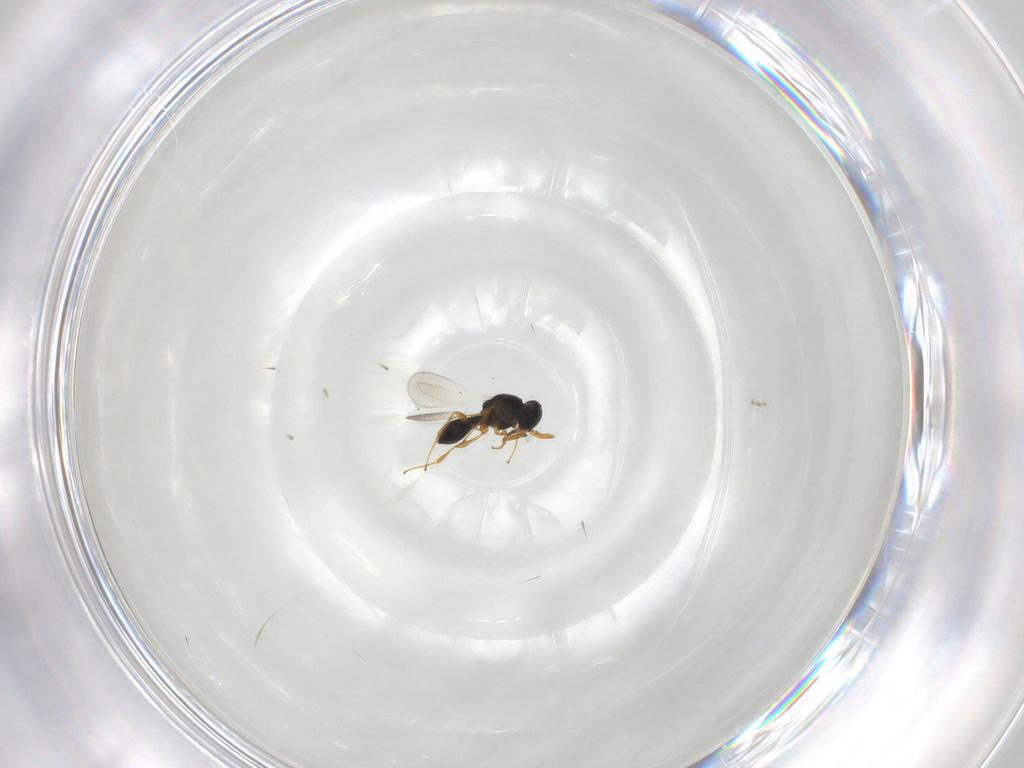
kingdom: Animalia
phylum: Arthropoda
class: Insecta
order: Hymenoptera
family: Platygastridae
